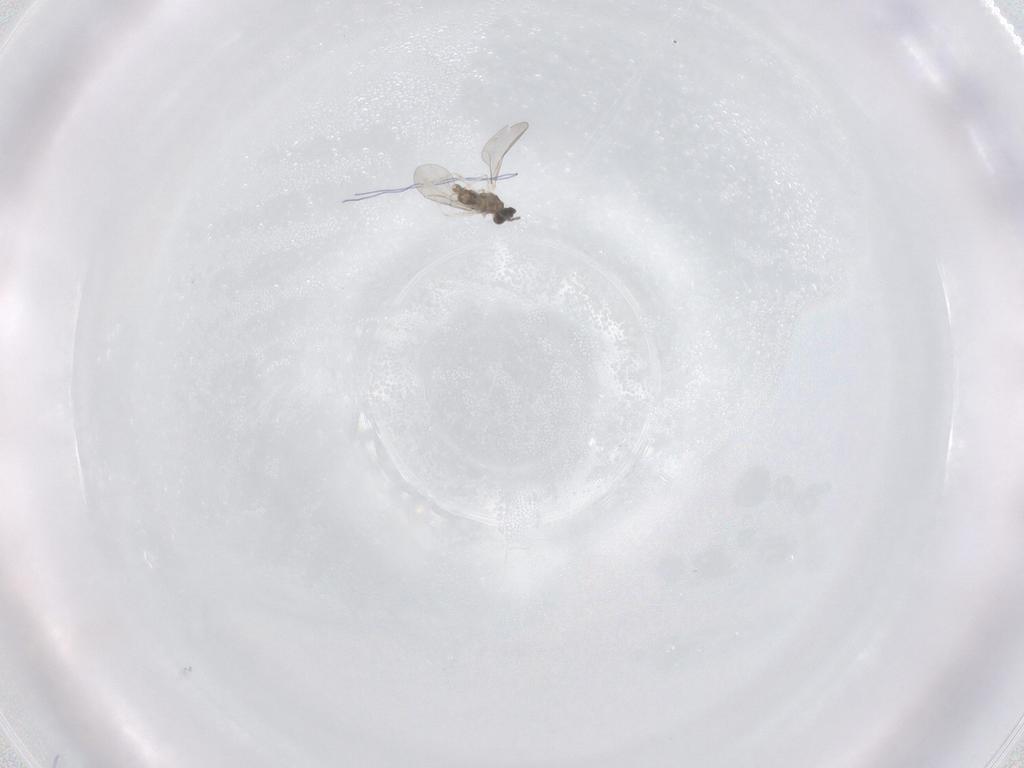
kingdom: Animalia
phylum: Arthropoda
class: Insecta
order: Diptera
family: Cecidomyiidae
